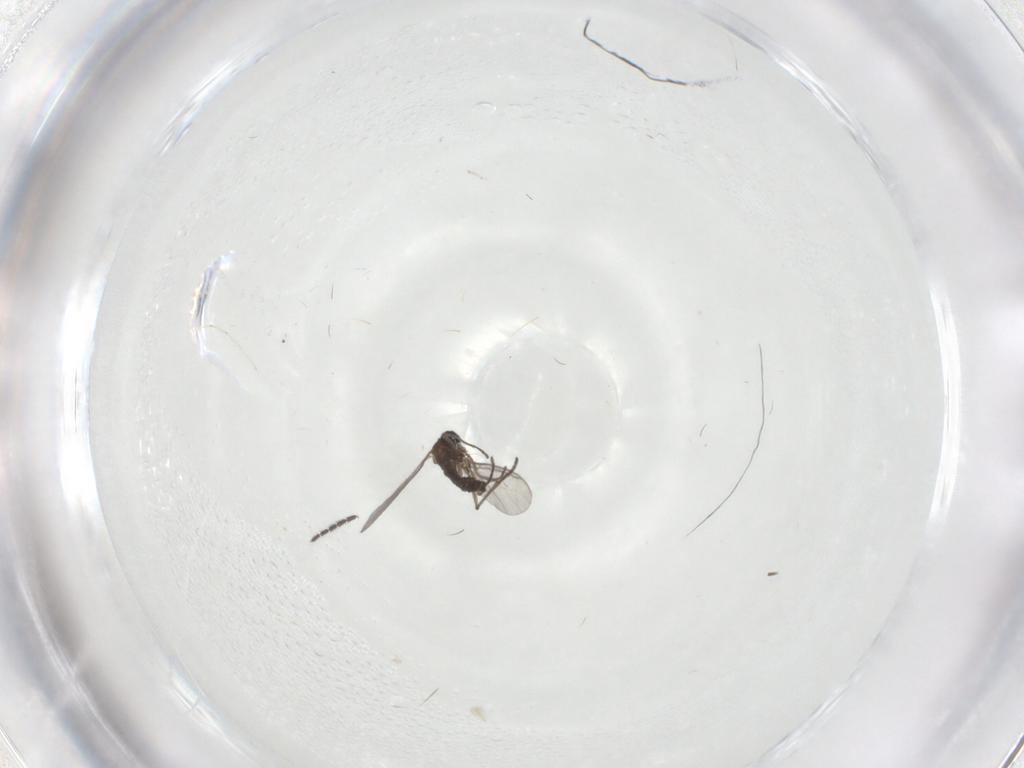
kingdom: Animalia
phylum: Arthropoda
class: Insecta
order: Diptera
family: Sciaridae
